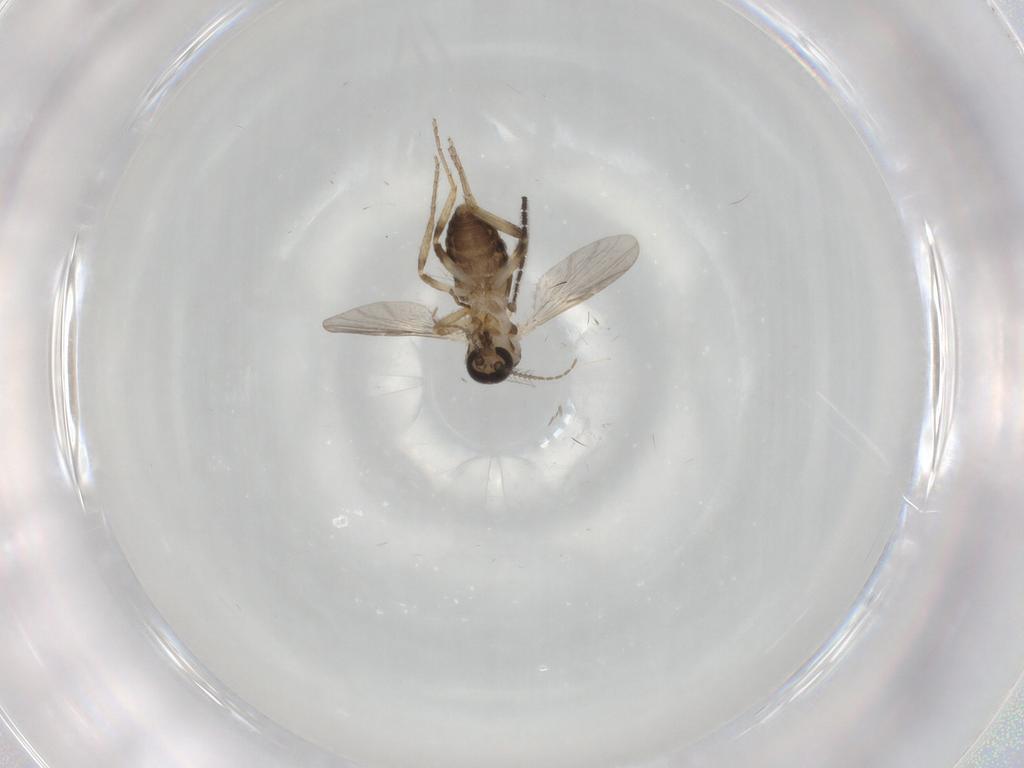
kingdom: Animalia
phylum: Arthropoda
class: Insecta
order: Diptera
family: Ceratopogonidae
